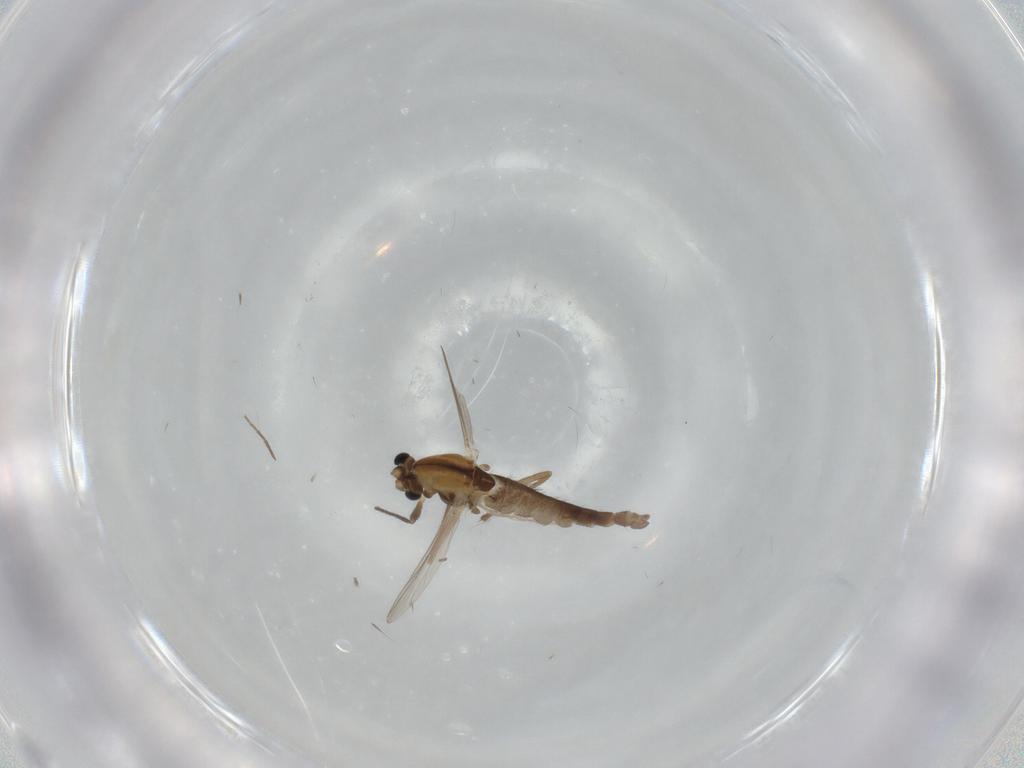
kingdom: Animalia
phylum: Arthropoda
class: Insecta
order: Diptera
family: Chironomidae
